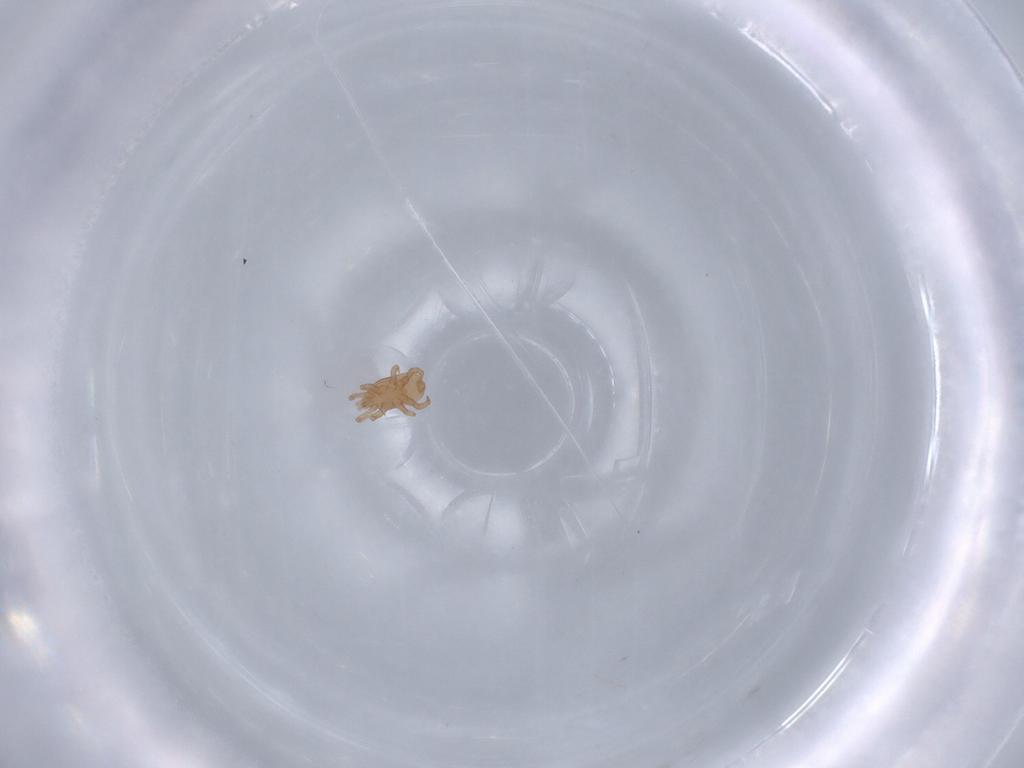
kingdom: Animalia
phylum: Arthropoda
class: Arachnida
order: Mesostigmata
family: Halolaelapidae
